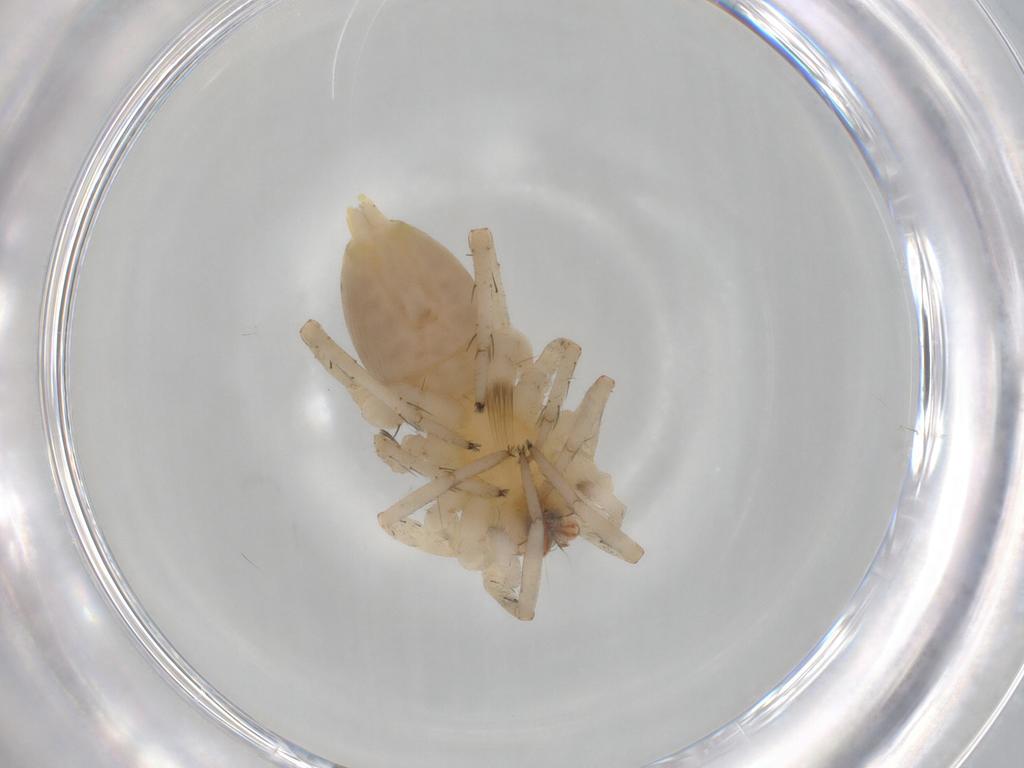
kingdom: Animalia
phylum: Arthropoda
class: Arachnida
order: Araneae
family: Anyphaenidae
